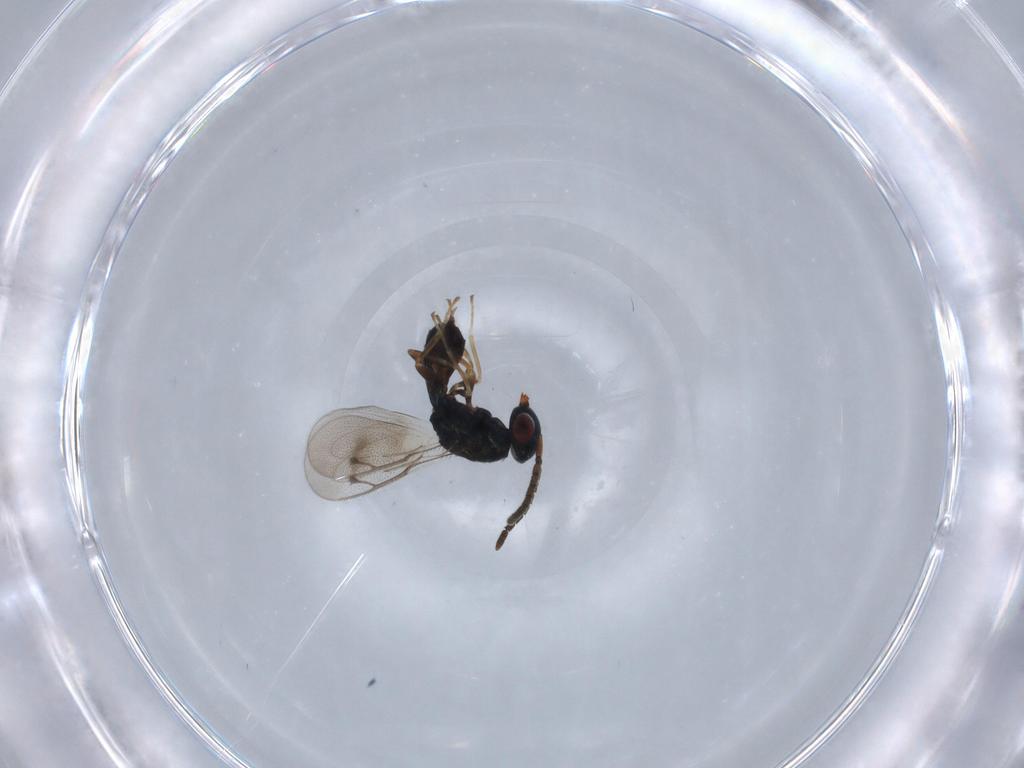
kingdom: Animalia
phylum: Arthropoda
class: Insecta
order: Hymenoptera
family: Pteromalidae
